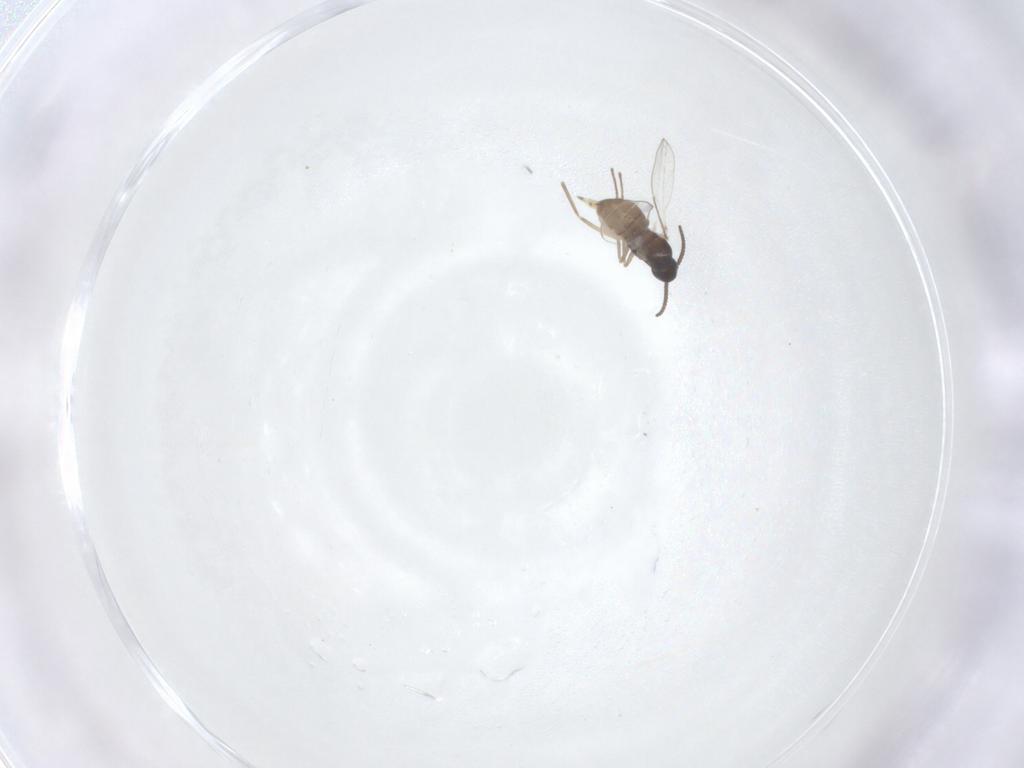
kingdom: Animalia
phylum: Arthropoda
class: Insecta
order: Diptera
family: Cecidomyiidae
